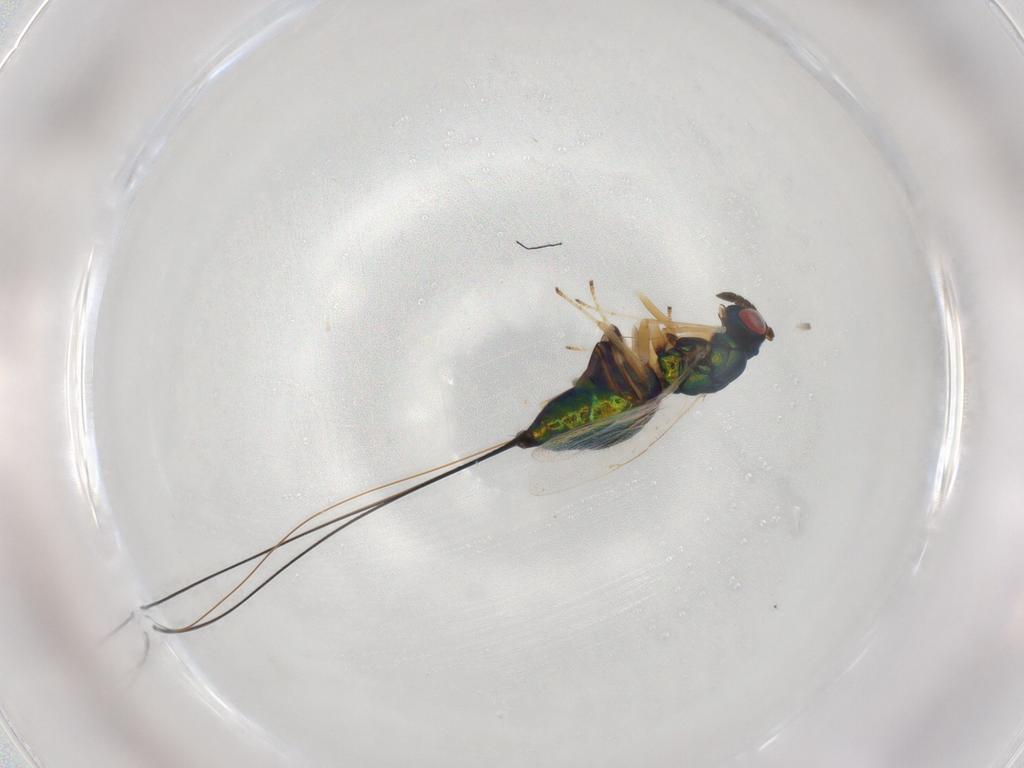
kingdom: Animalia
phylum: Arthropoda
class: Insecta
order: Hymenoptera
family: Pteromalidae
